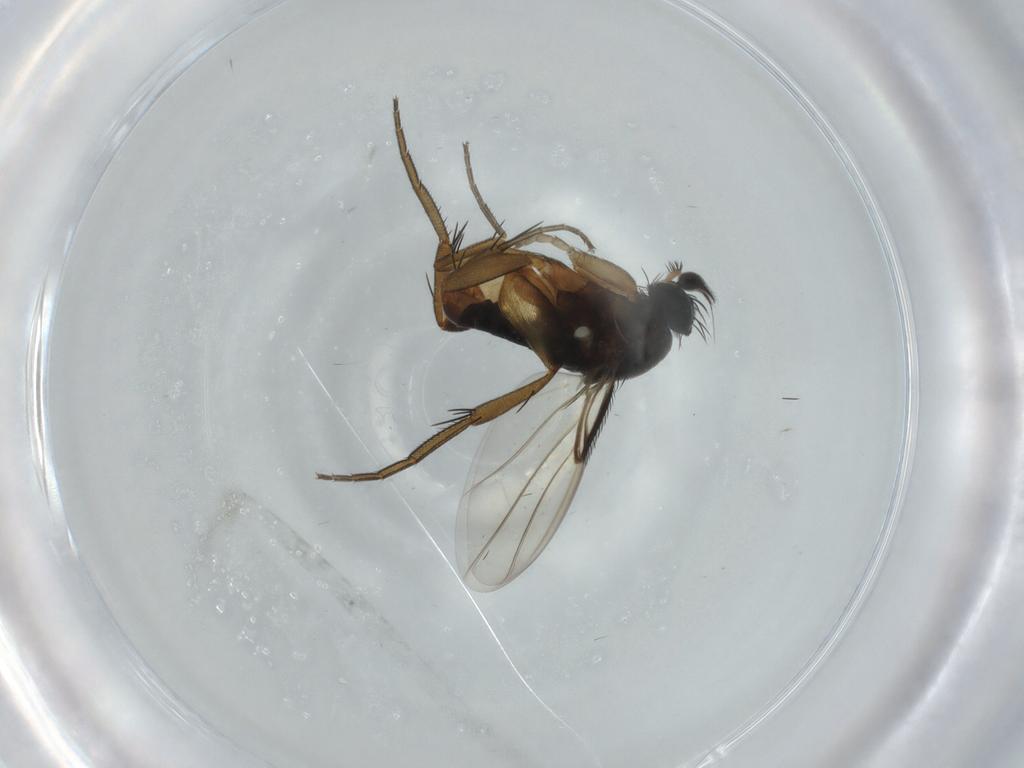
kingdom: Animalia
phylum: Arthropoda
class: Insecta
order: Diptera
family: Phoridae
